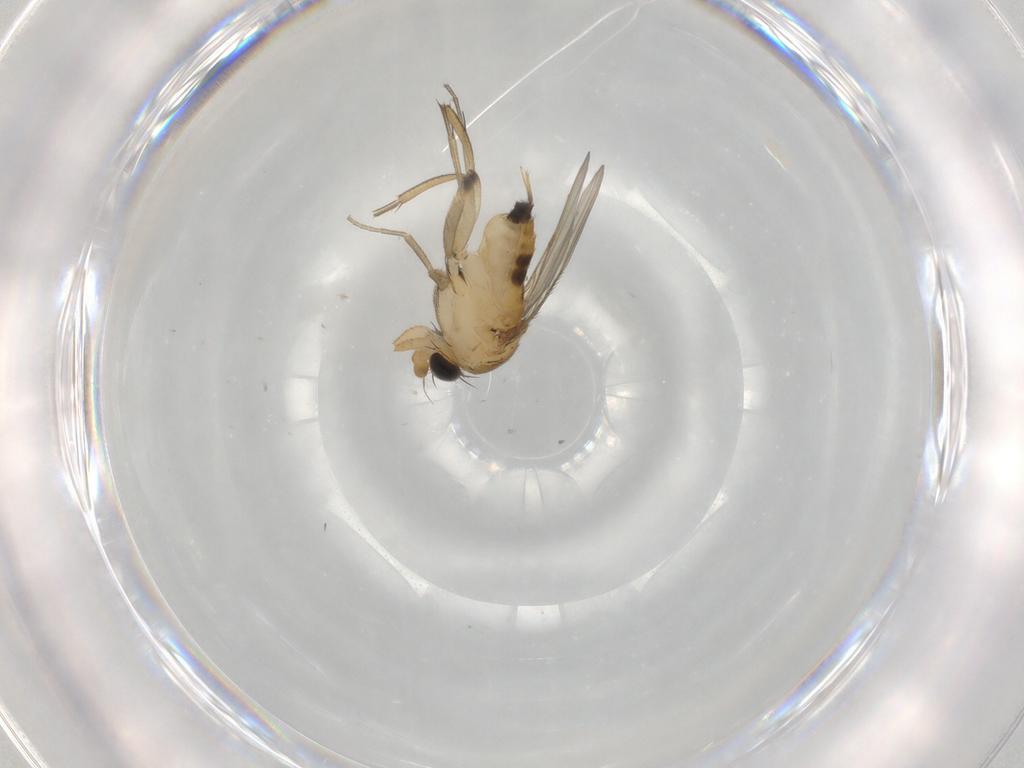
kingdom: Animalia
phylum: Arthropoda
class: Insecta
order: Diptera
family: Phoridae
